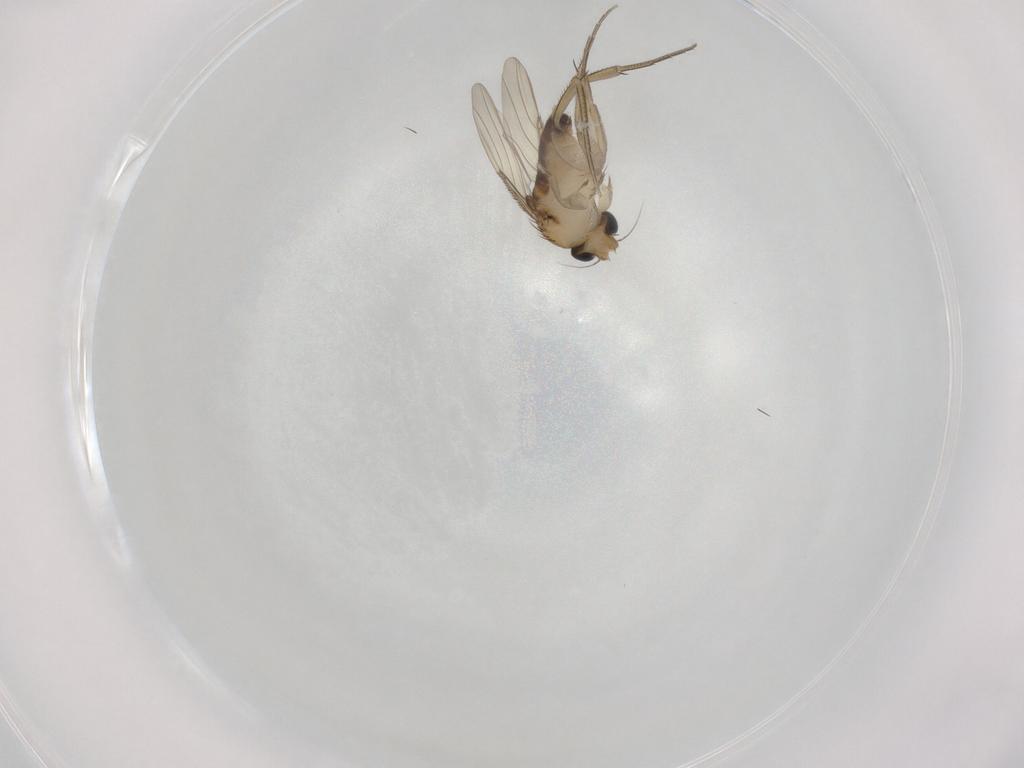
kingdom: Animalia
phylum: Arthropoda
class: Insecta
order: Diptera
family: Phoridae
